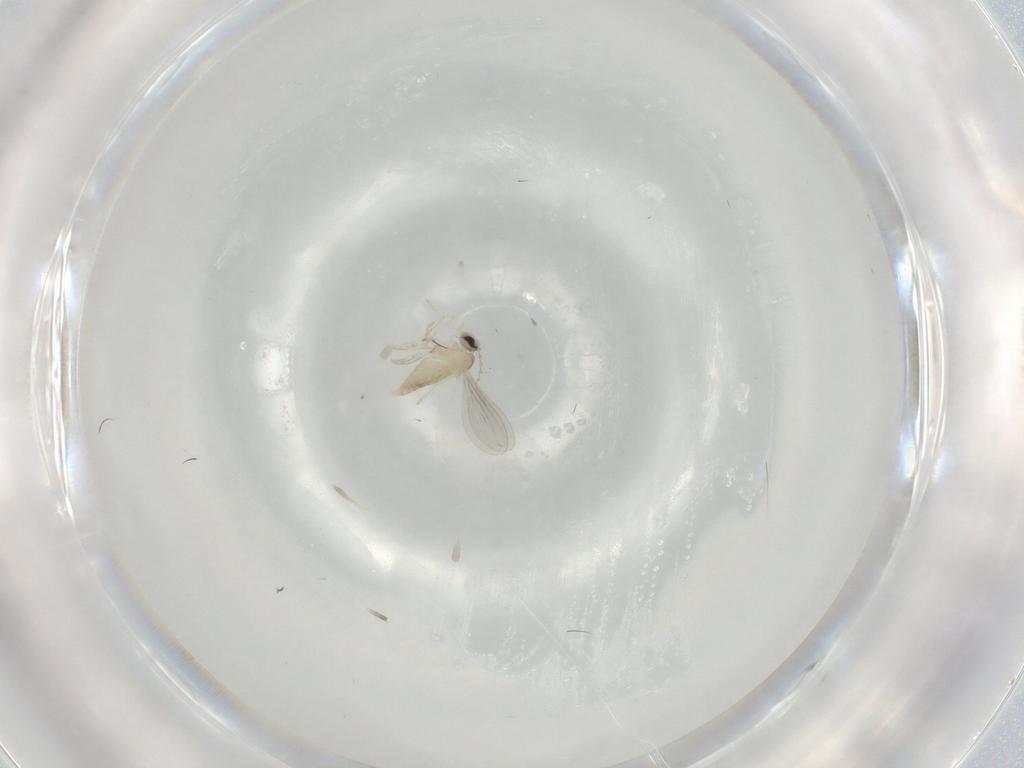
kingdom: Animalia
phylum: Arthropoda
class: Insecta
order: Diptera
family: Cecidomyiidae
